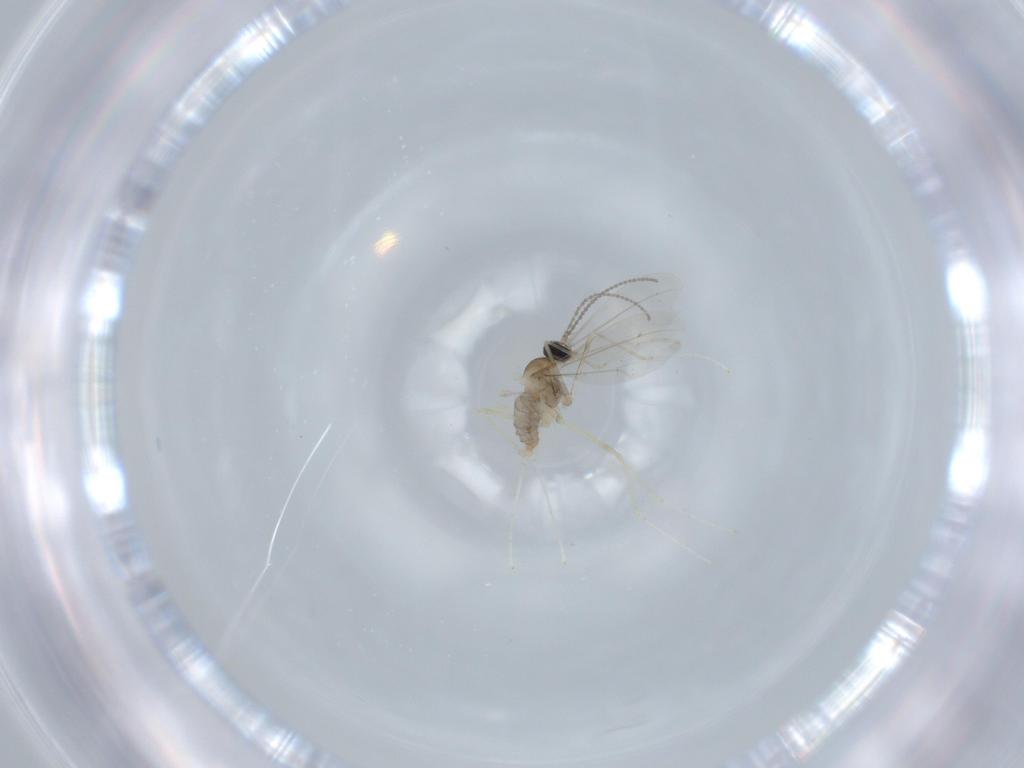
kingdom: Animalia
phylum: Arthropoda
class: Insecta
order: Diptera
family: Cecidomyiidae
